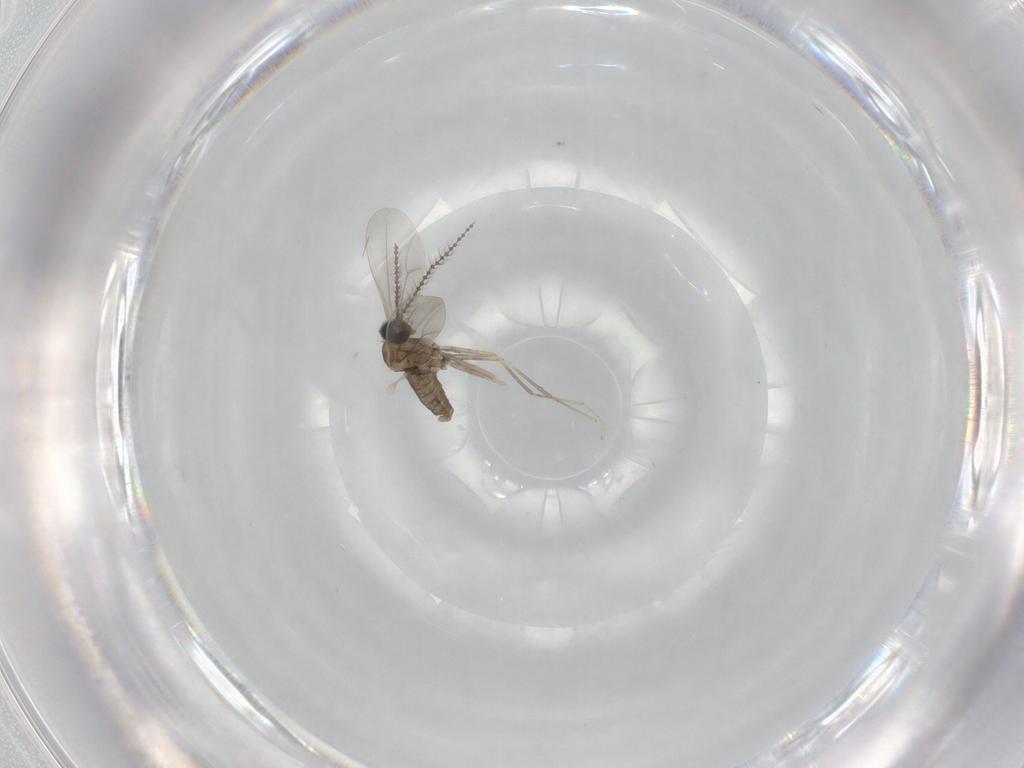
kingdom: Animalia
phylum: Arthropoda
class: Insecta
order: Diptera
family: Cecidomyiidae
